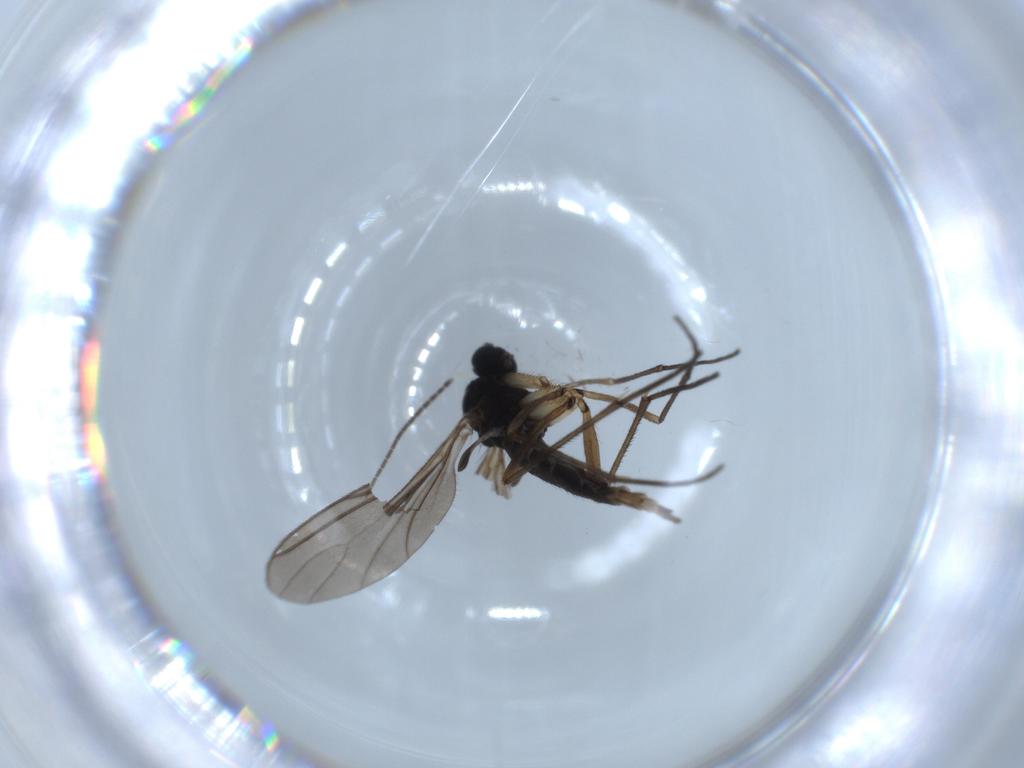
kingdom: Animalia
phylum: Arthropoda
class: Insecta
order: Diptera
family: Sciaridae
